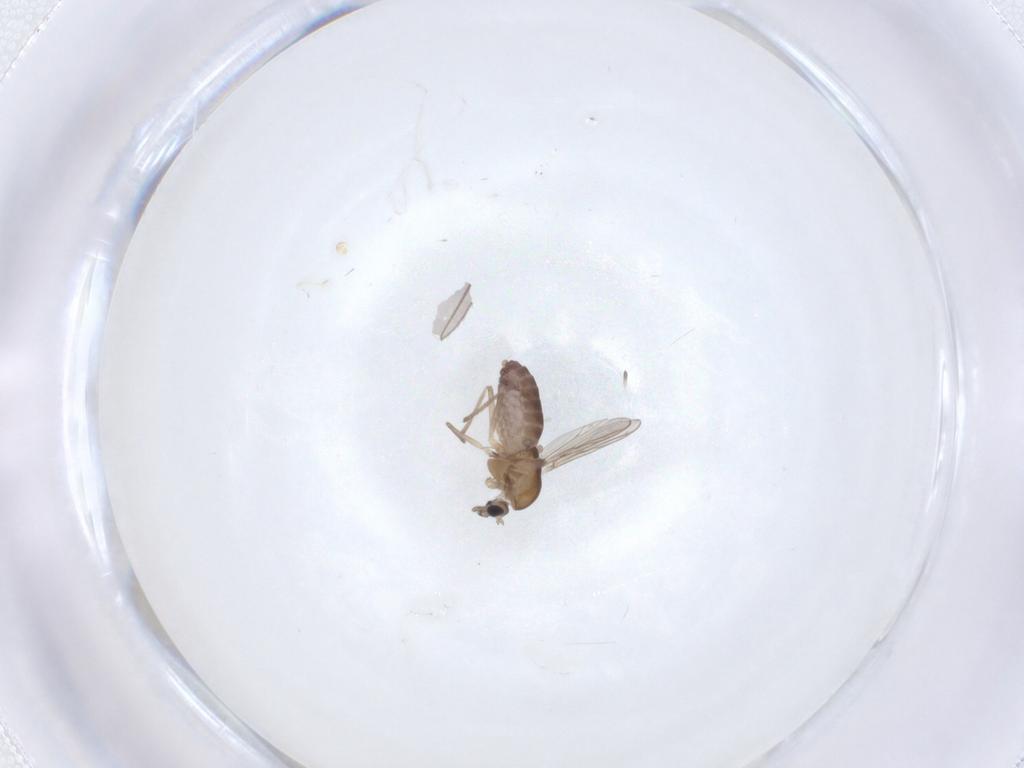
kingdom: Animalia
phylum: Arthropoda
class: Insecta
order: Diptera
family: Chironomidae
